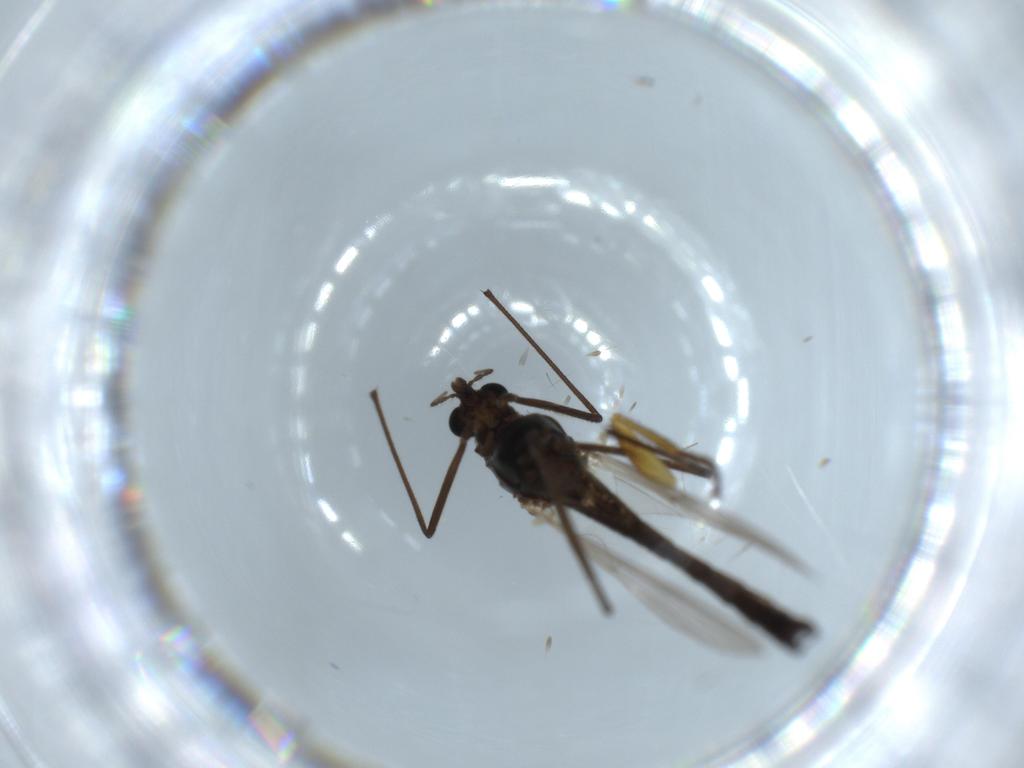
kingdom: Animalia
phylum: Arthropoda
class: Insecta
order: Diptera
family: Chironomidae
